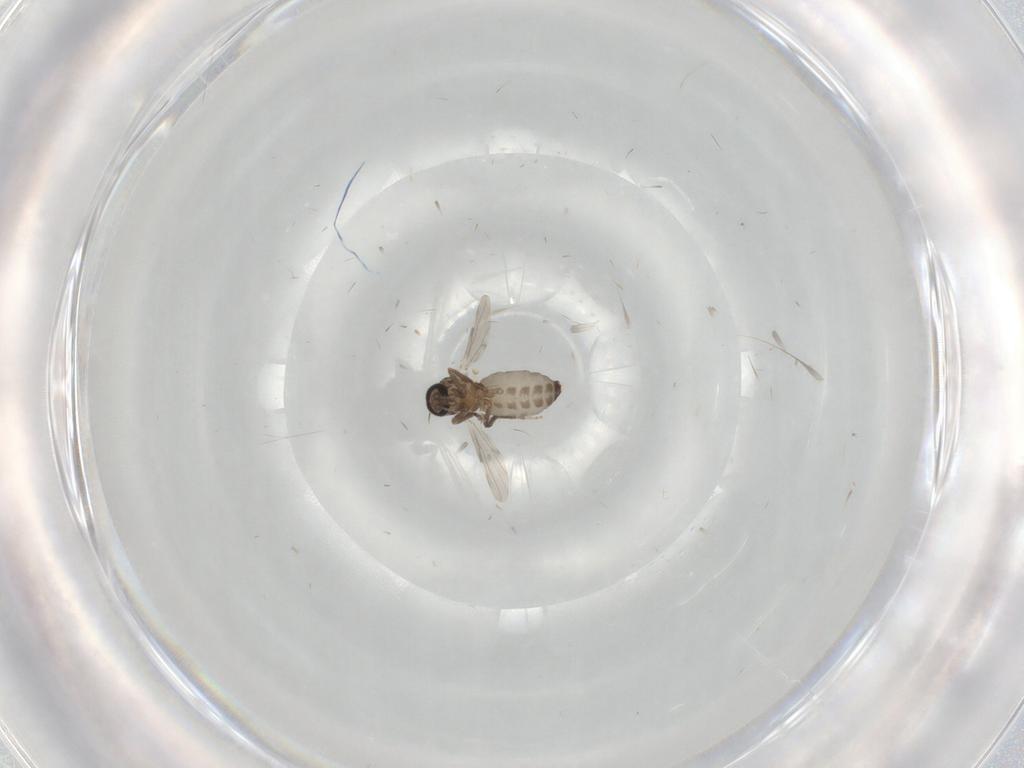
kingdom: Animalia
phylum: Arthropoda
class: Insecta
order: Diptera
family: Ceratopogonidae
